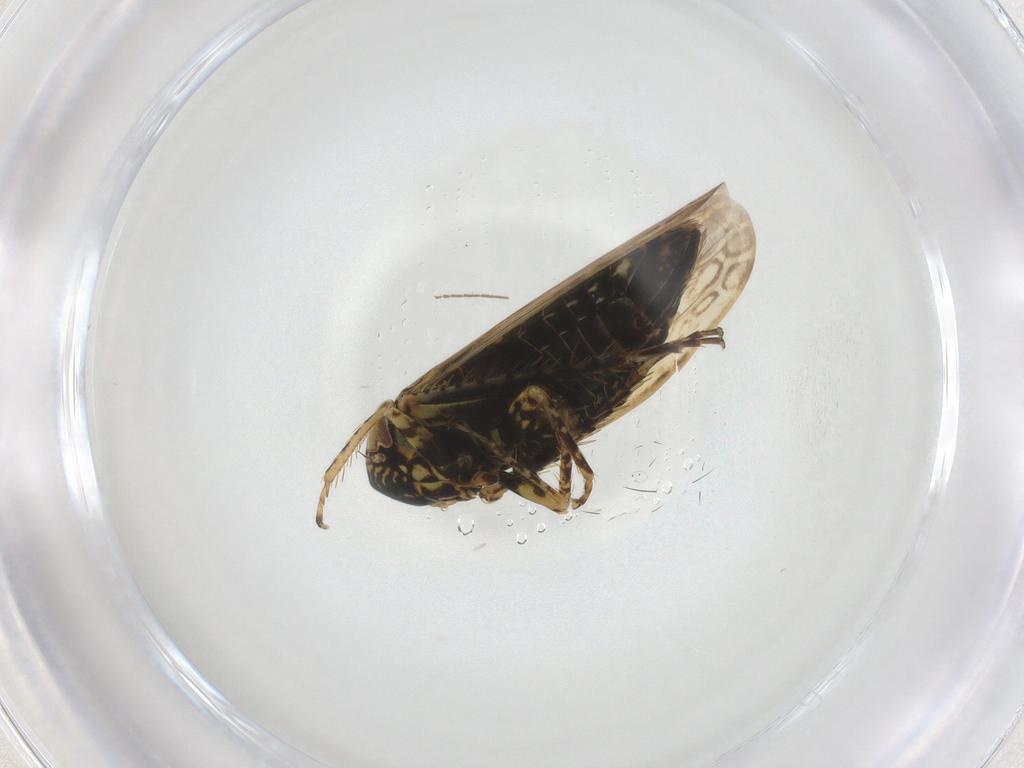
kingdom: Animalia
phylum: Arthropoda
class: Insecta
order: Hemiptera
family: Cicadellidae
